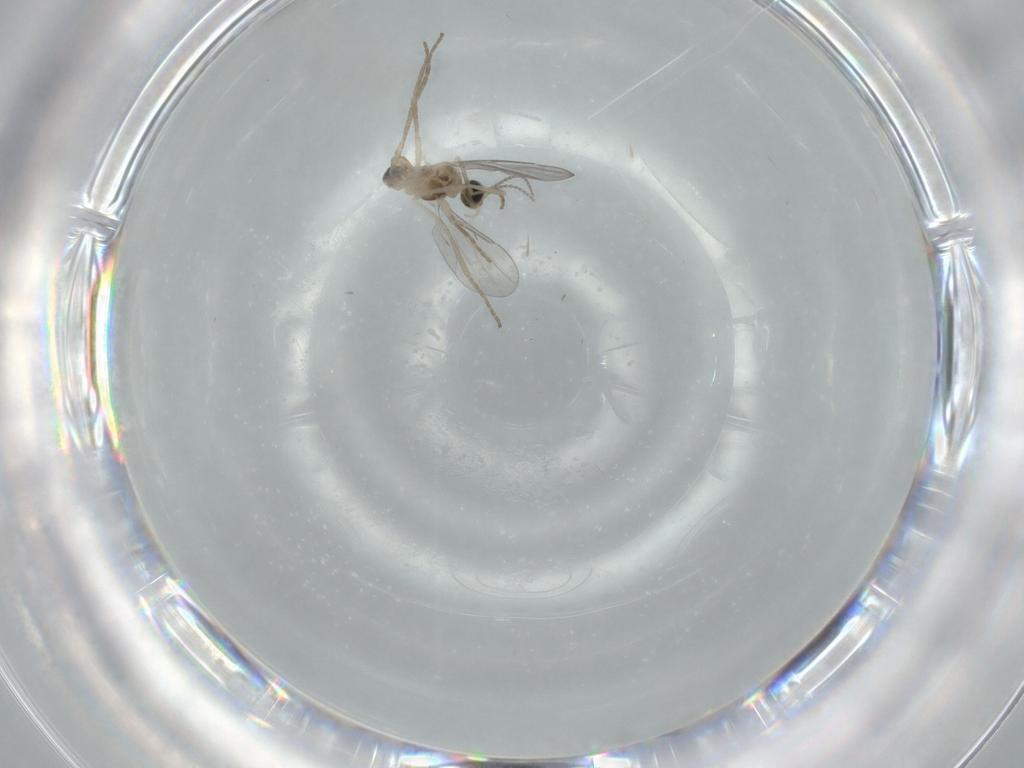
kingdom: Animalia
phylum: Arthropoda
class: Insecta
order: Diptera
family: Cecidomyiidae
